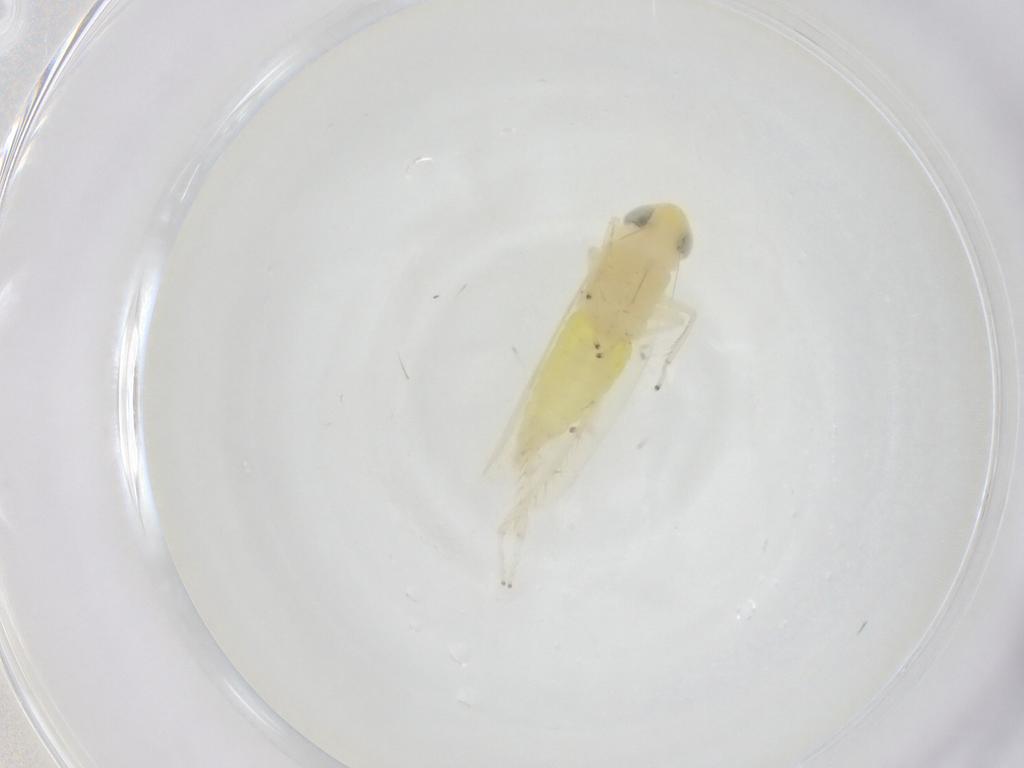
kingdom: Animalia
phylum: Arthropoda
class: Insecta
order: Hemiptera
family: Cicadellidae
